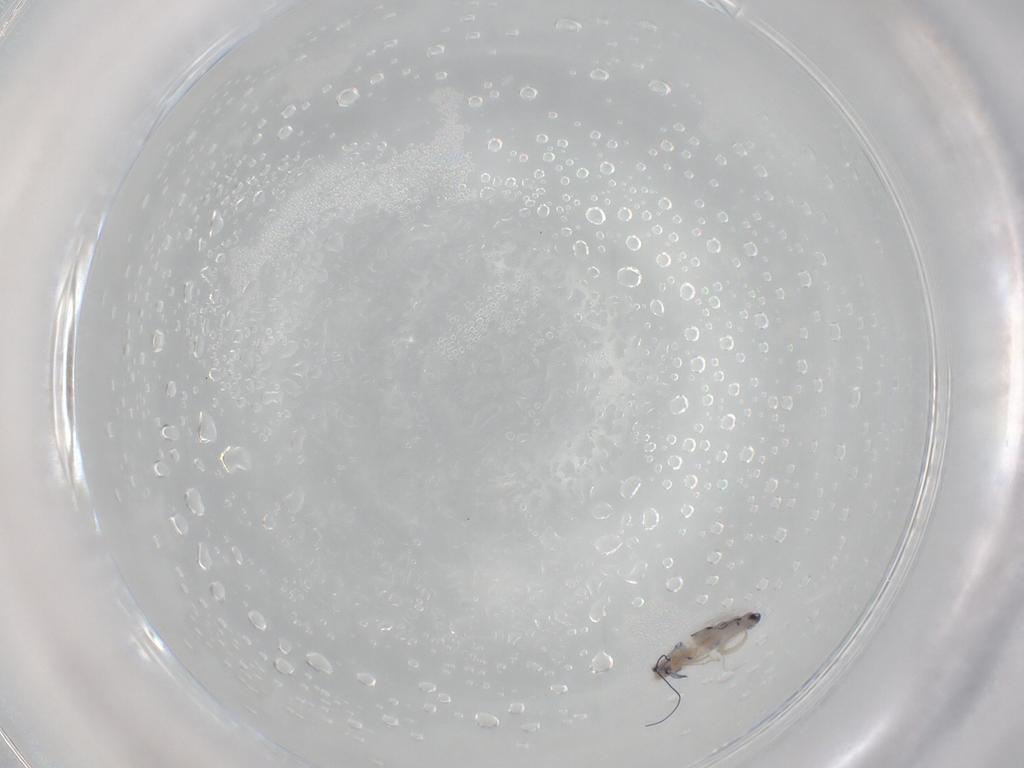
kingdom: Animalia
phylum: Arthropoda
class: Collembola
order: Entomobryomorpha
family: Entomobryidae
